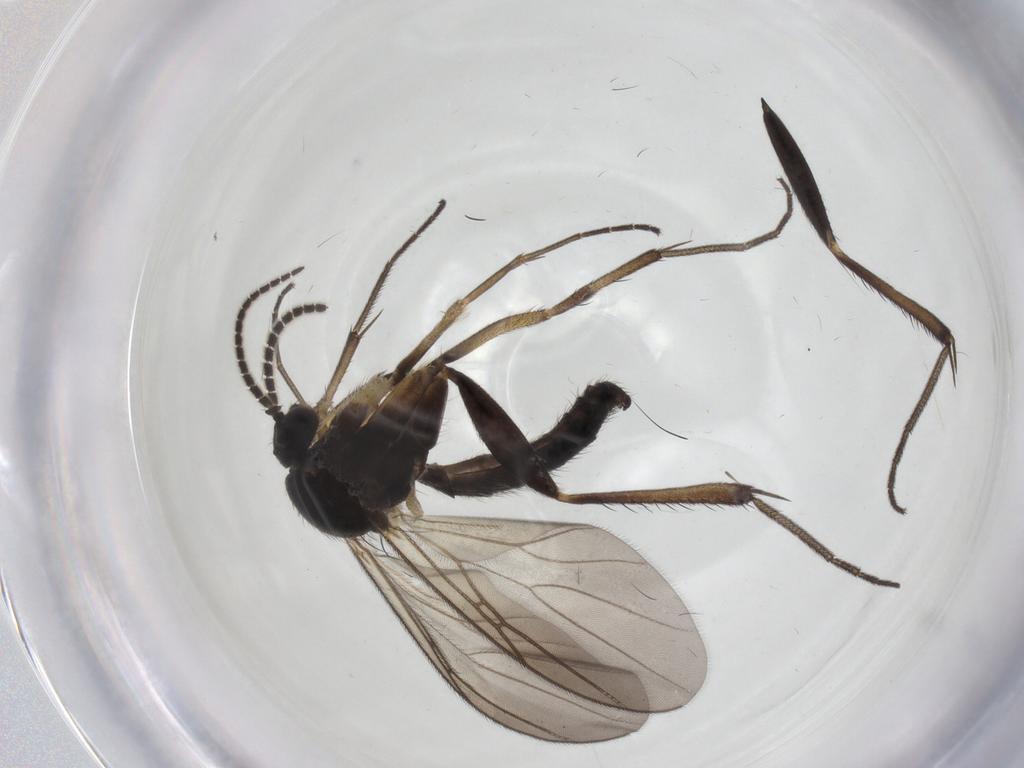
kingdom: Animalia
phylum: Arthropoda
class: Insecta
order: Diptera
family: Mycetophilidae
